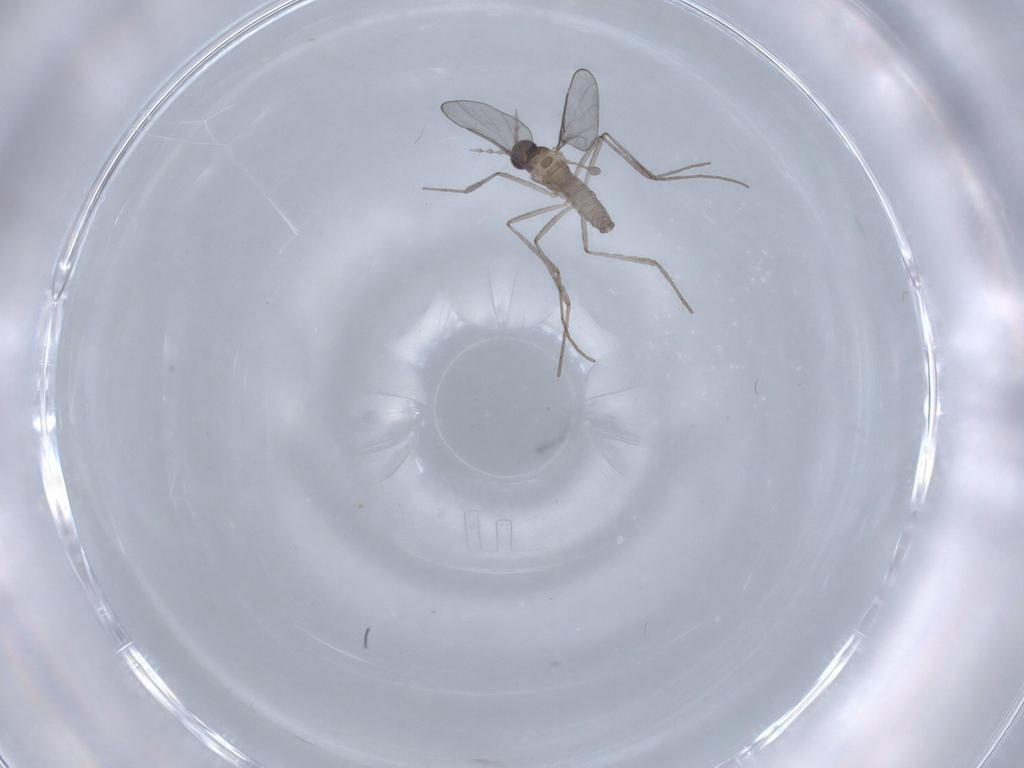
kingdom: Animalia
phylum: Arthropoda
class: Insecta
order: Diptera
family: Cecidomyiidae
